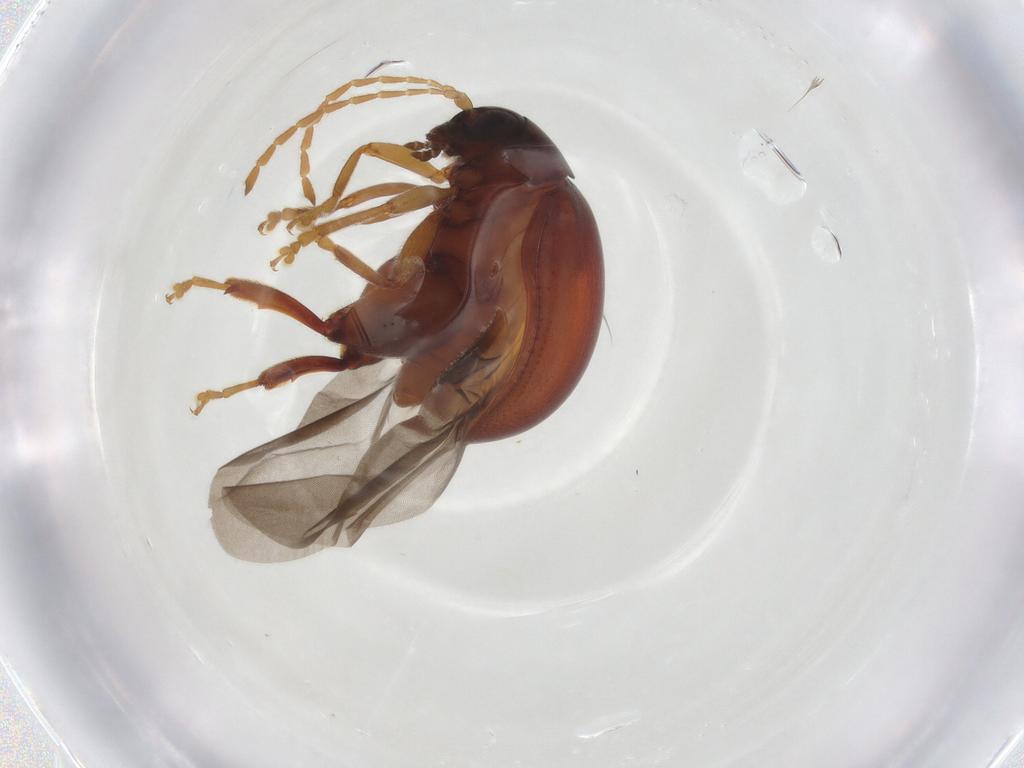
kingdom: Animalia
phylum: Arthropoda
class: Insecta
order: Coleoptera
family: Chrysomelidae
